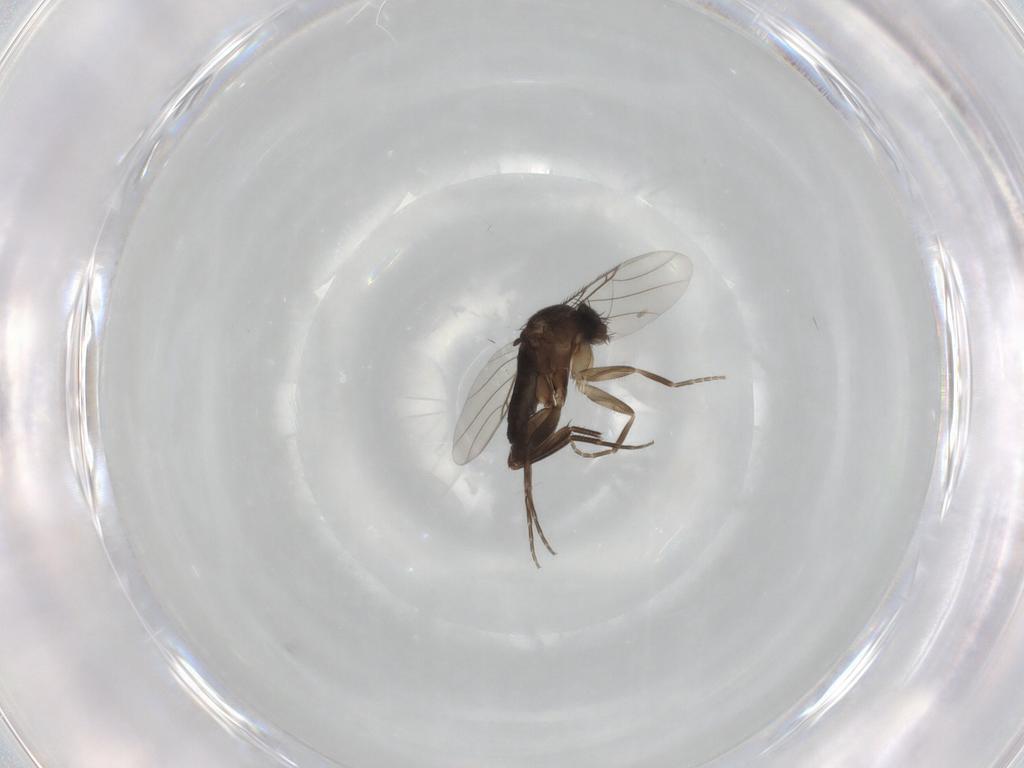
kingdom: Animalia
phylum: Arthropoda
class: Insecta
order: Diptera
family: Phoridae
